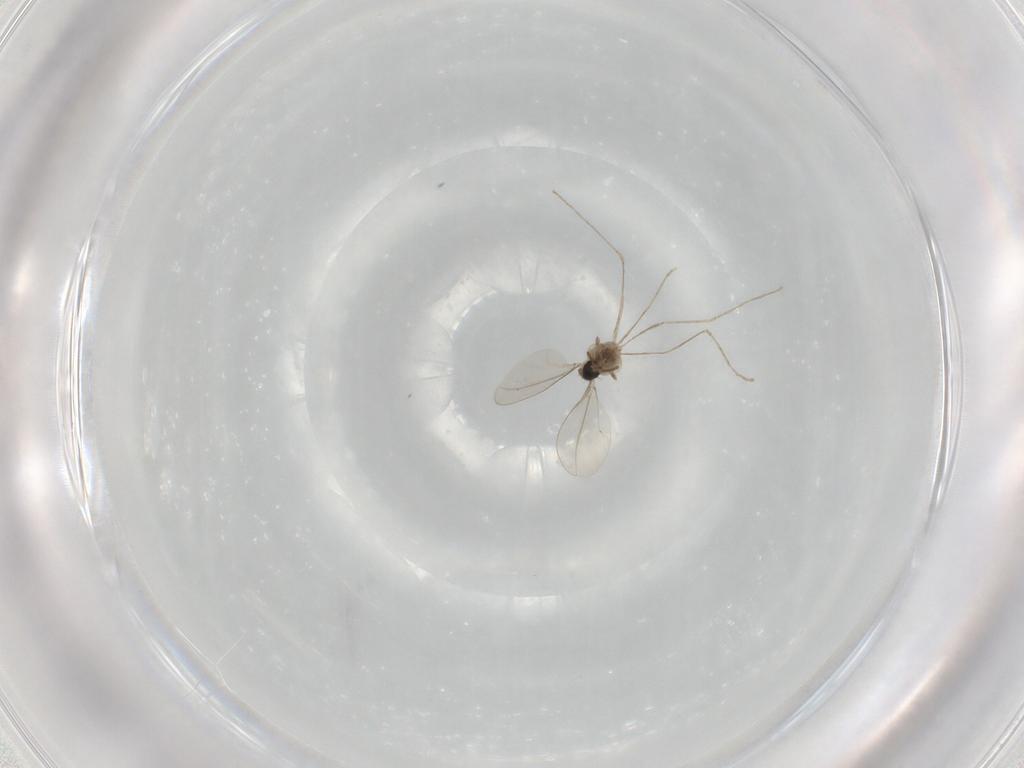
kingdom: Animalia
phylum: Arthropoda
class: Insecta
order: Diptera
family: Cecidomyiidae
